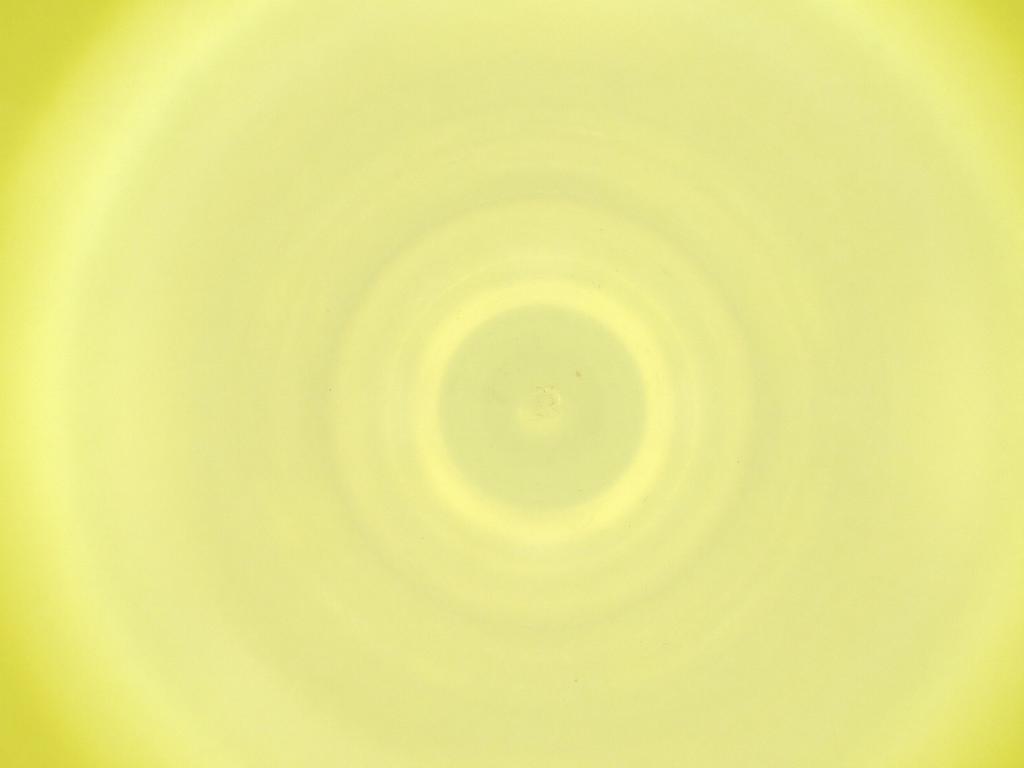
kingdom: Animalia
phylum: Arthropoda
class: Insecta
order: Diptera
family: Cecidomyiidae
